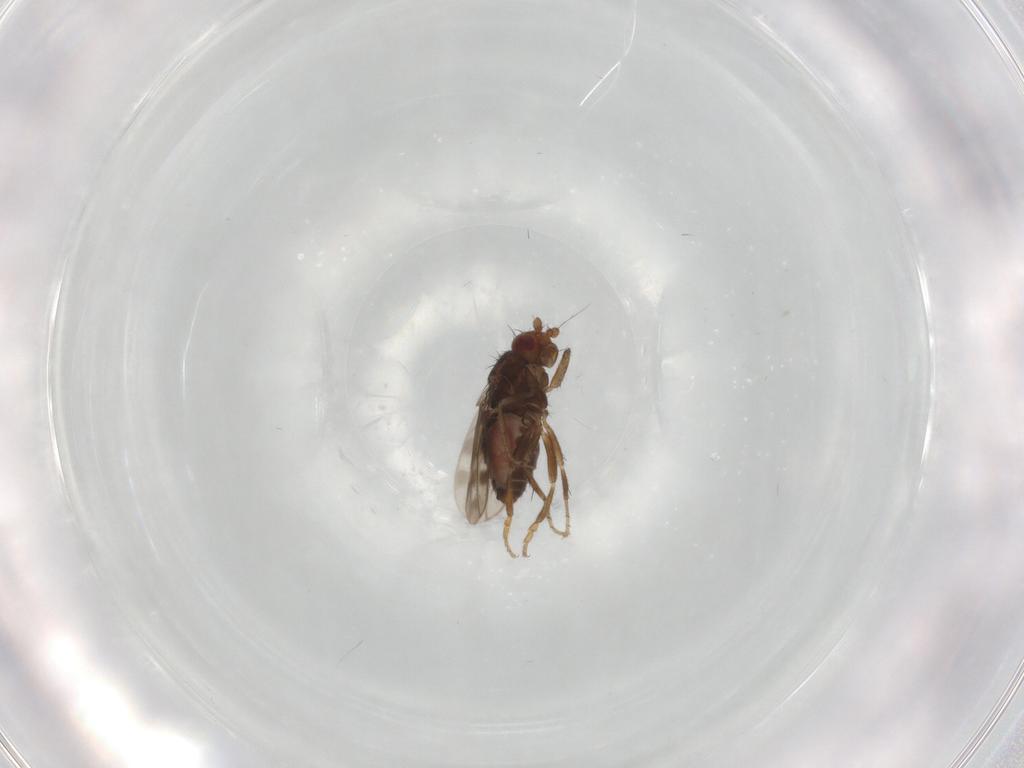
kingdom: Animalia
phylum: Arthropoda
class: Insecta
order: Diptera
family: Sphaeroceridae
